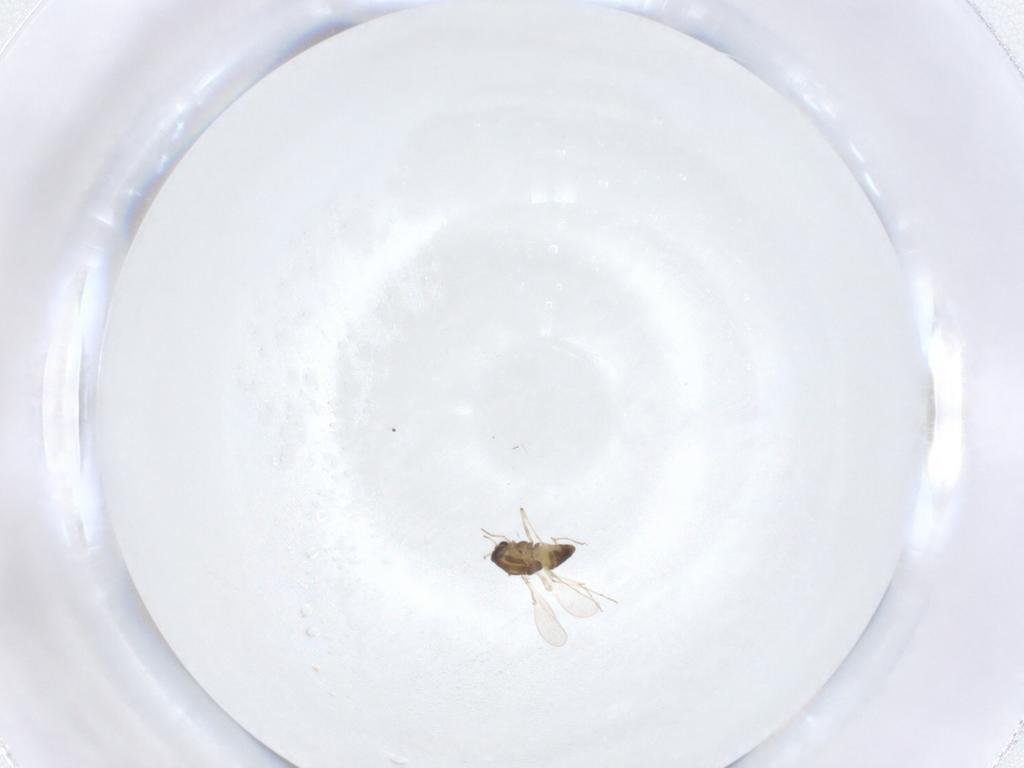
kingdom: Animalia
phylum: Arthropoda
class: Insecta
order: Diptera
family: Chironomidae
